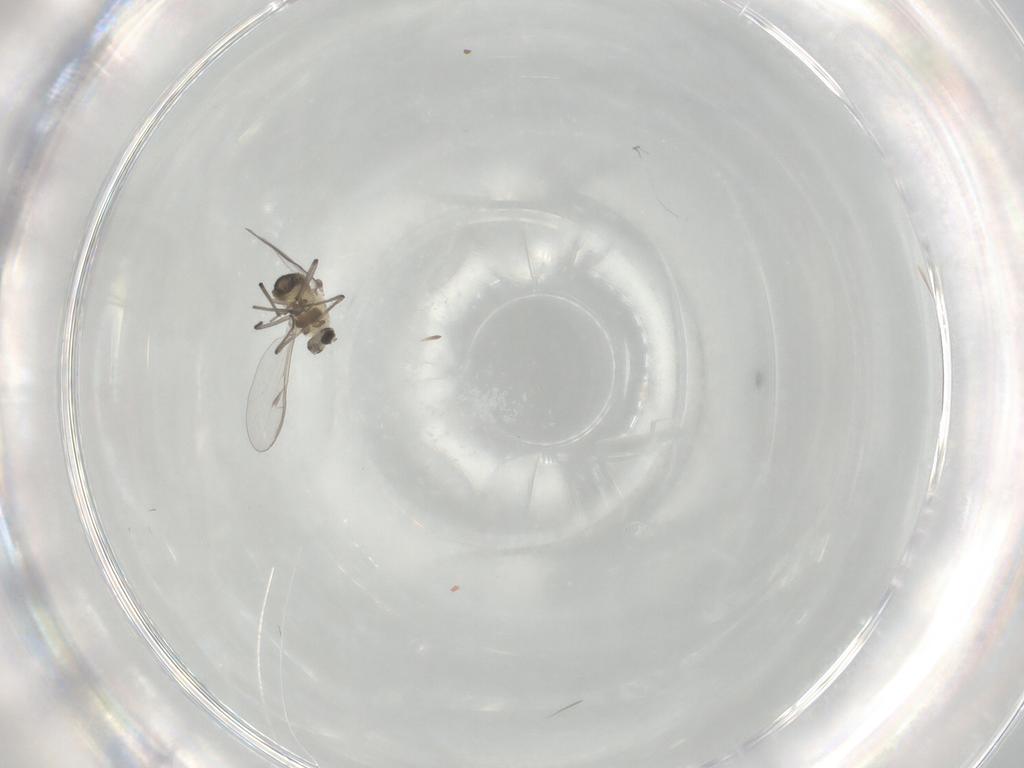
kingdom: Animalia
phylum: Arthropoda
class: Insecta
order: Diptera
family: Chironomidae
